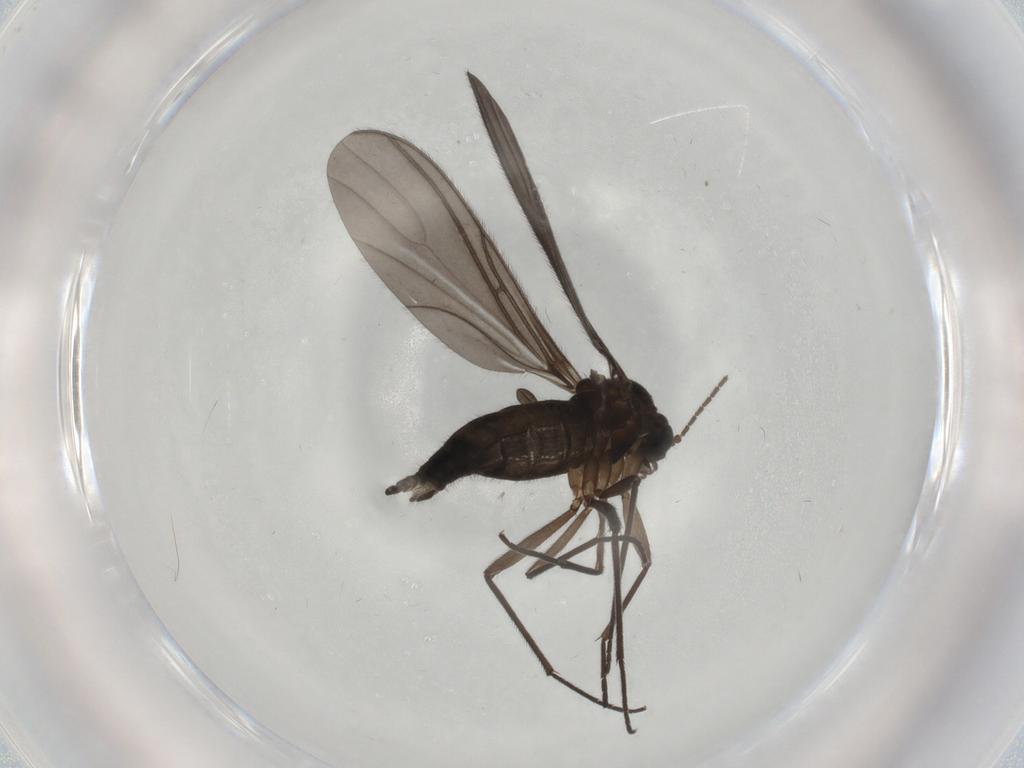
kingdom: Animalia
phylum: Arthropoda
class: Insecta
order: Diptera
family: Sciaridae
